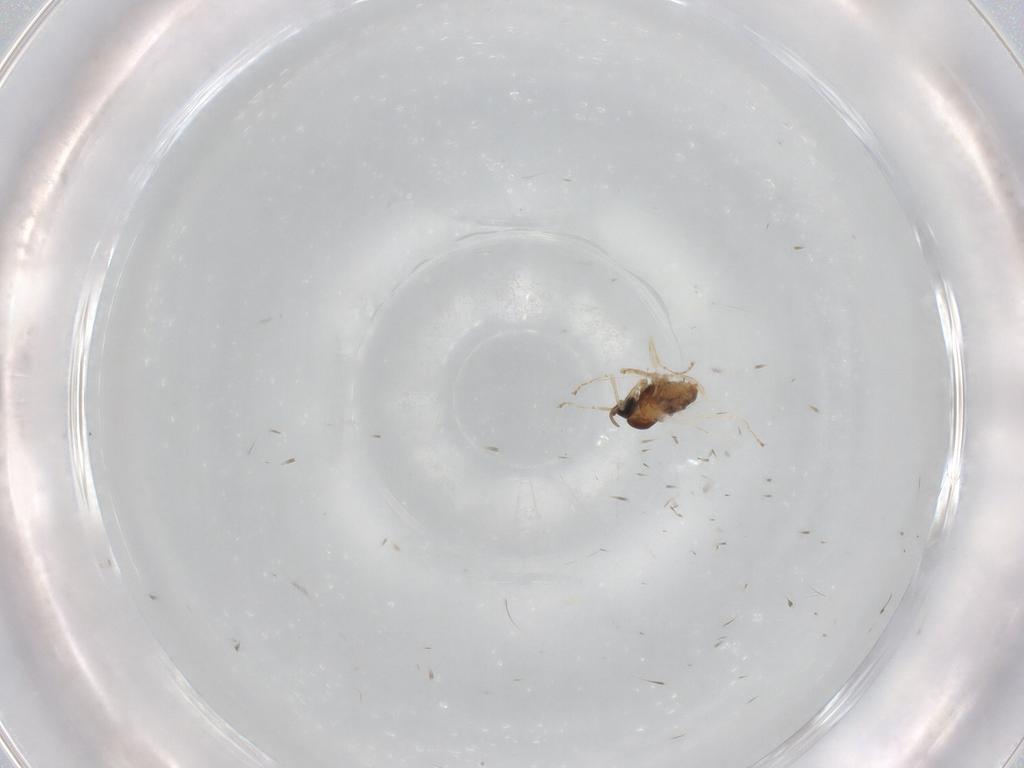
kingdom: Animalia
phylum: Arthropoda
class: Insecta
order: Diptera
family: Cecidomyiidae
